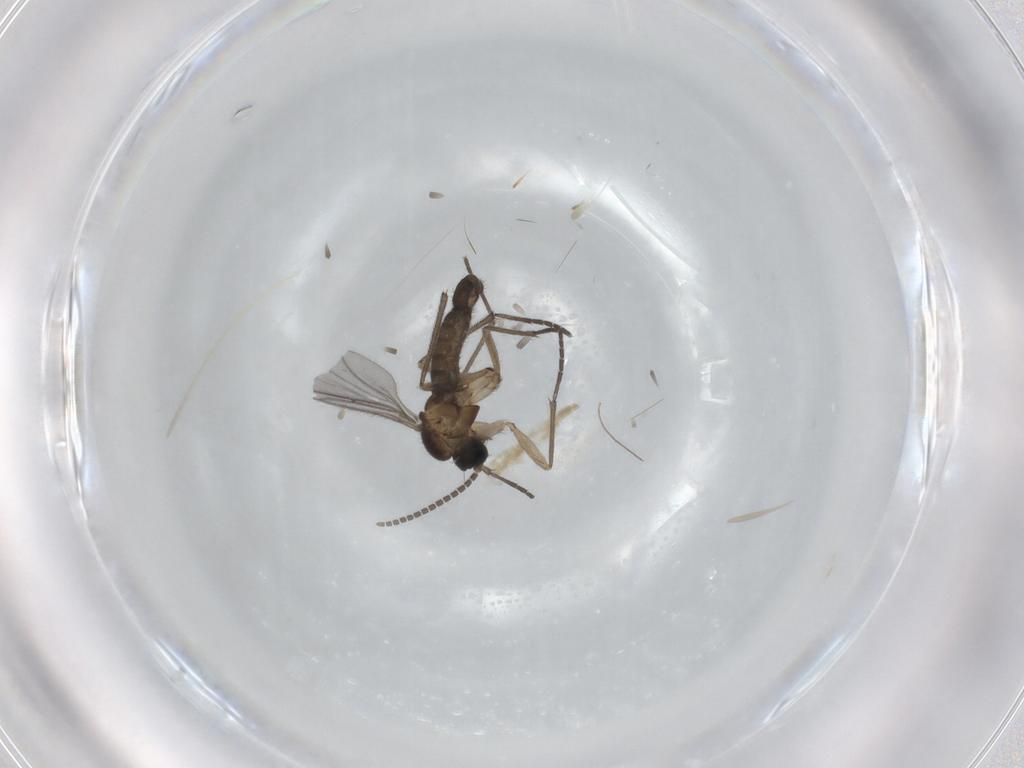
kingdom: Animalia
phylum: Arthropoda
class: Insecta
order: Diptera
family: Sciaridae
